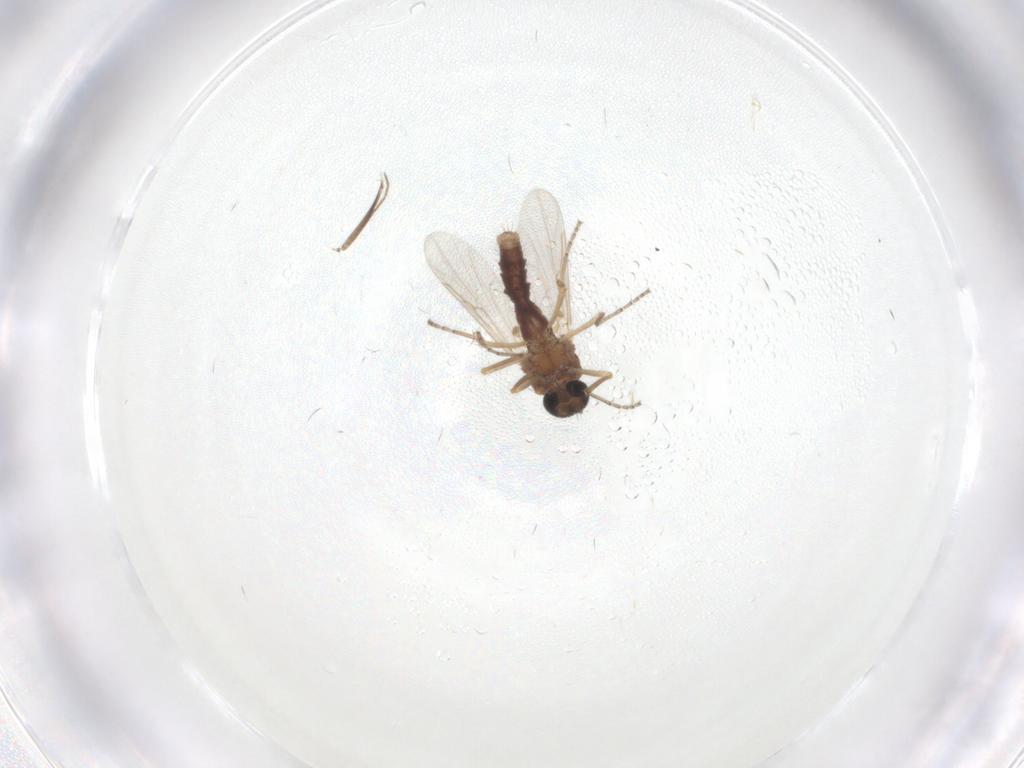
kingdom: Animalia
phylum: Arthropoda
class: Insecta
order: Diptera
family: Ceratopogonidae
